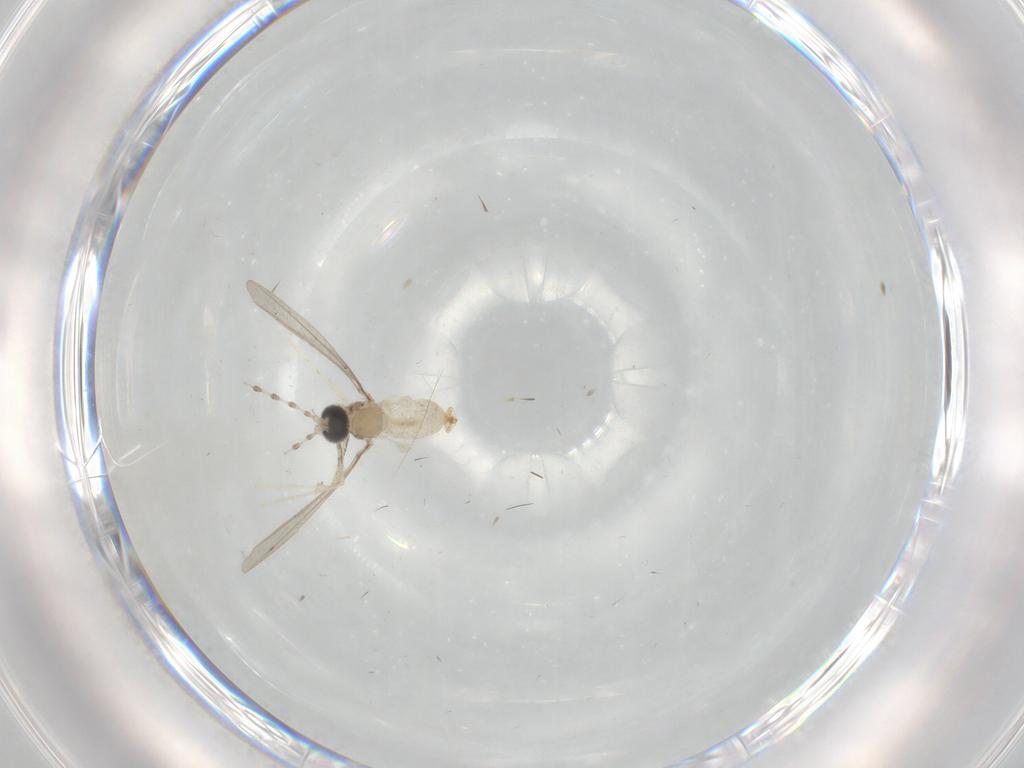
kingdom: Animalia
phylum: Arthropoda
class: Insecta
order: Diptera
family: Cecidomyiidae
